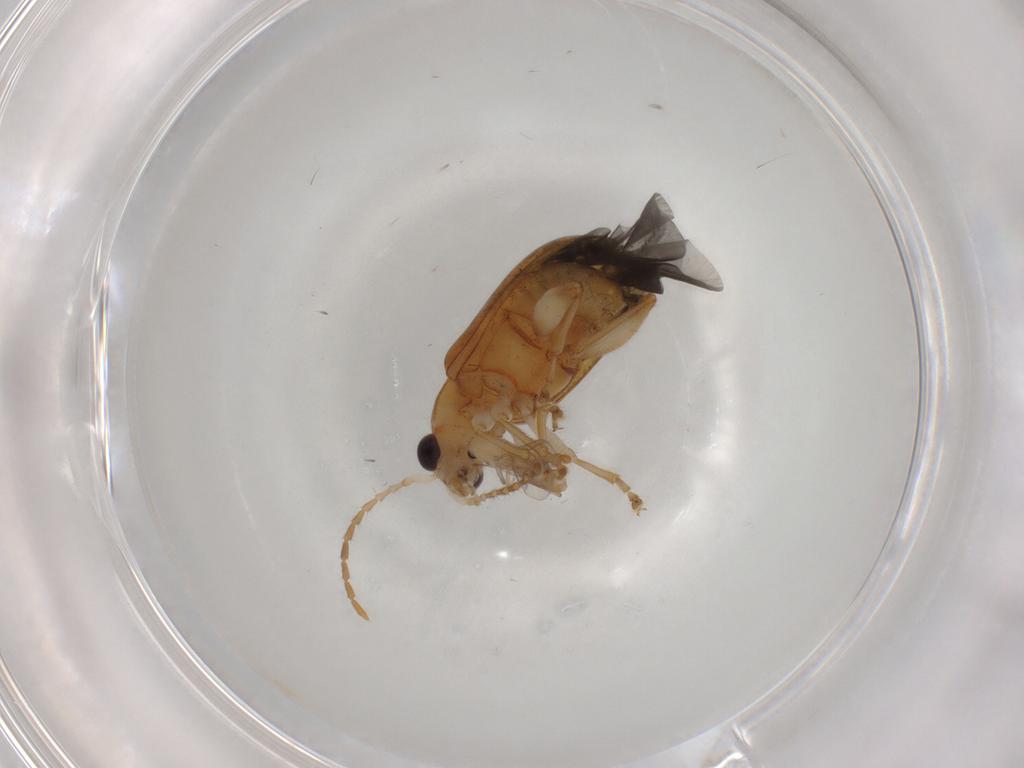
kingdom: Animalia
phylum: Arthropoda
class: Insecta
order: Coleoptera
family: Chrysomelidae
